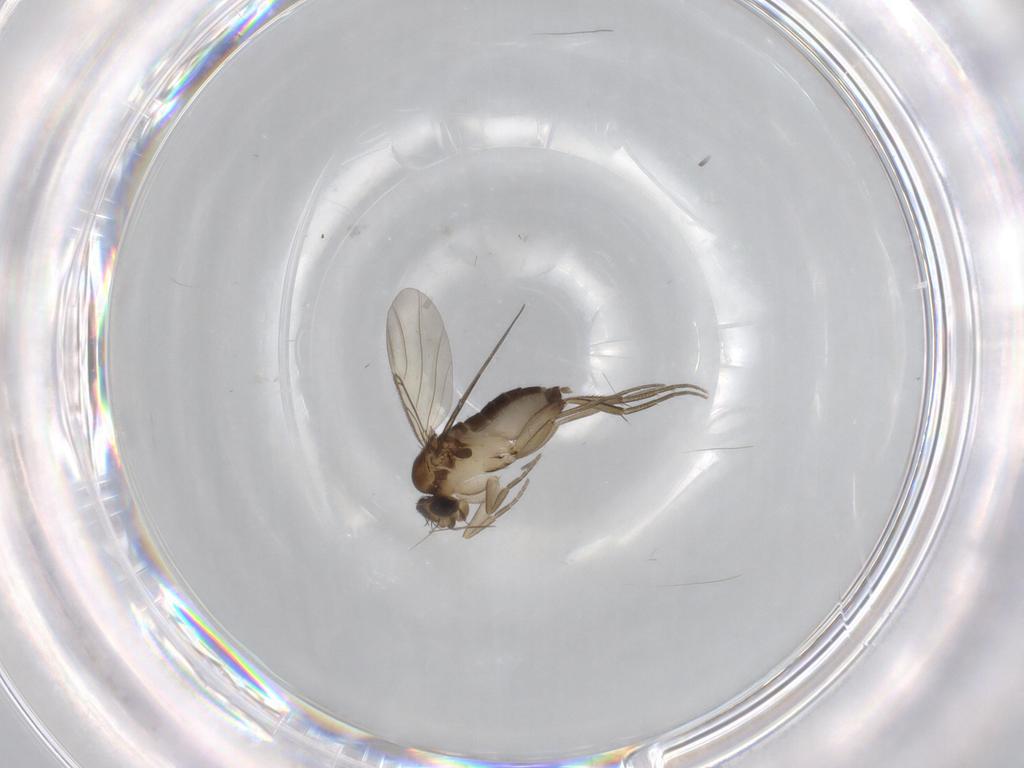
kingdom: Animalia
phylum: Arthropoda
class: Insecta
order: Diptera
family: Phoridae
